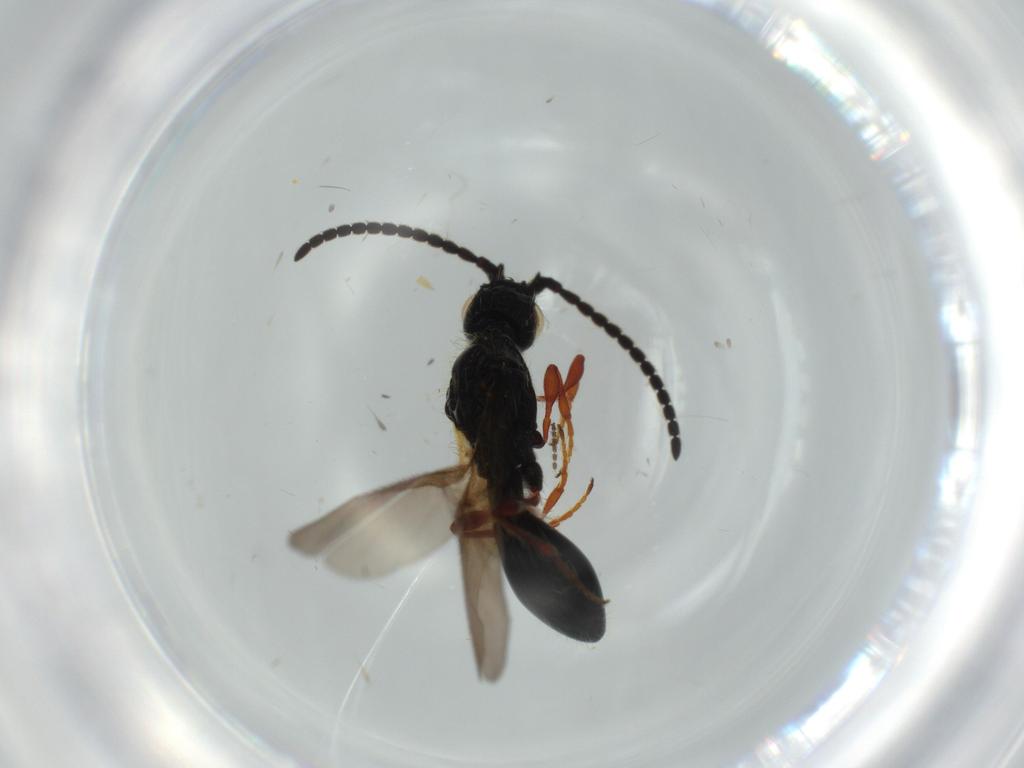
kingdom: Animalia
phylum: Arthropoda
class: Insecta
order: Hymenoptera
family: Diapriidae
